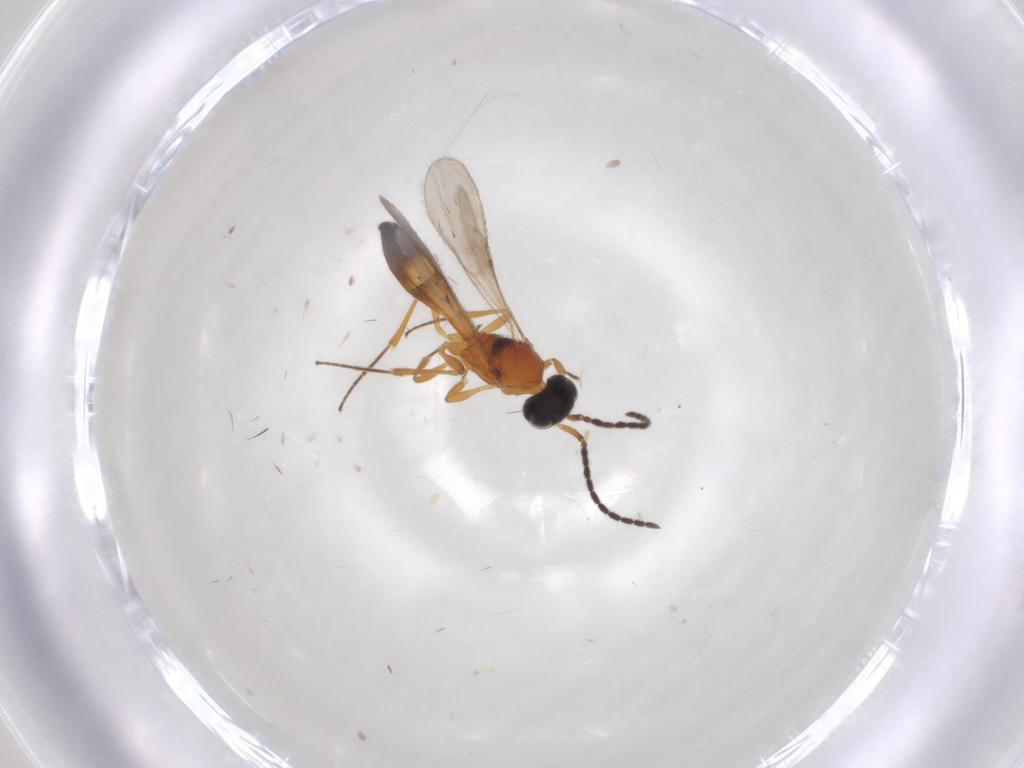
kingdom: Animalia
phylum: Arthropoda
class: Insecta
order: Hymenoptera
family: Scelionidae
